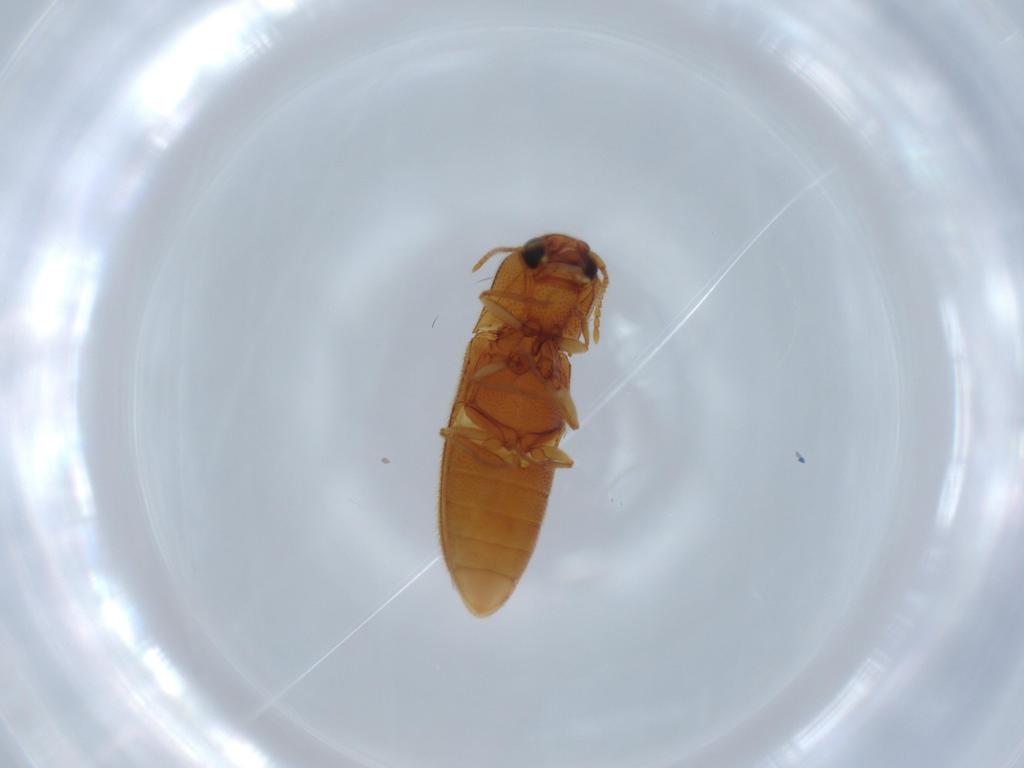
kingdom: Animalia
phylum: Arthropoda
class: Insecta
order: Coleoptera
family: Elateridae
